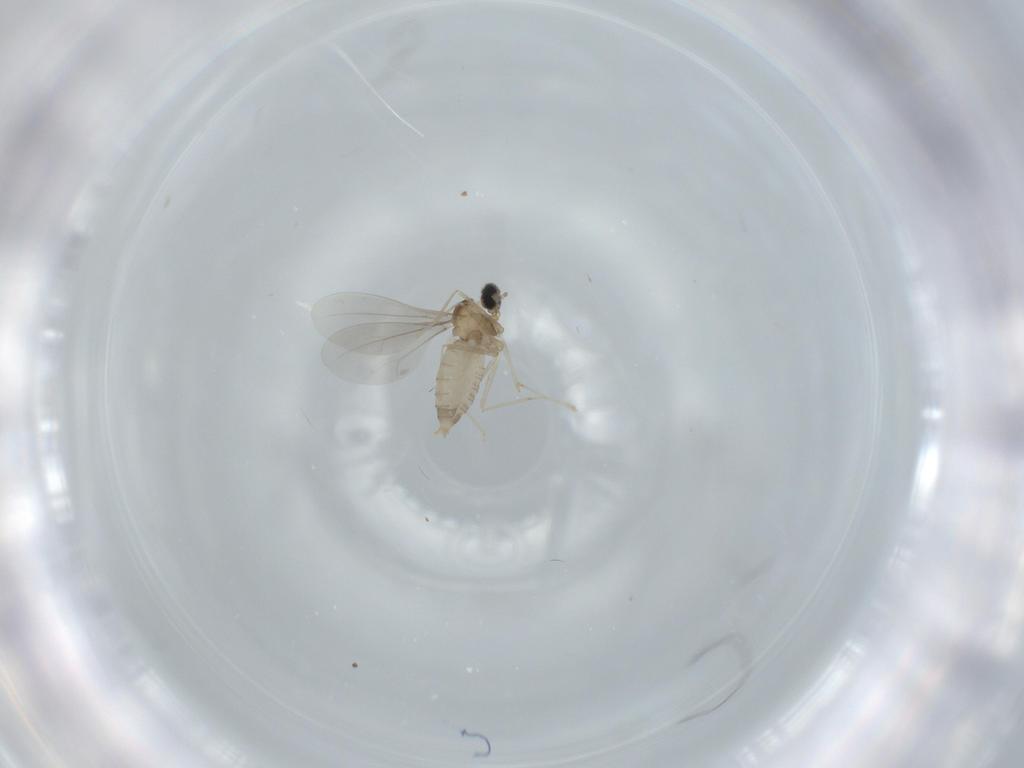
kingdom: Animalia
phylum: Arthropoda
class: Insecta
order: Diptera
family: Cecidomyiidae
